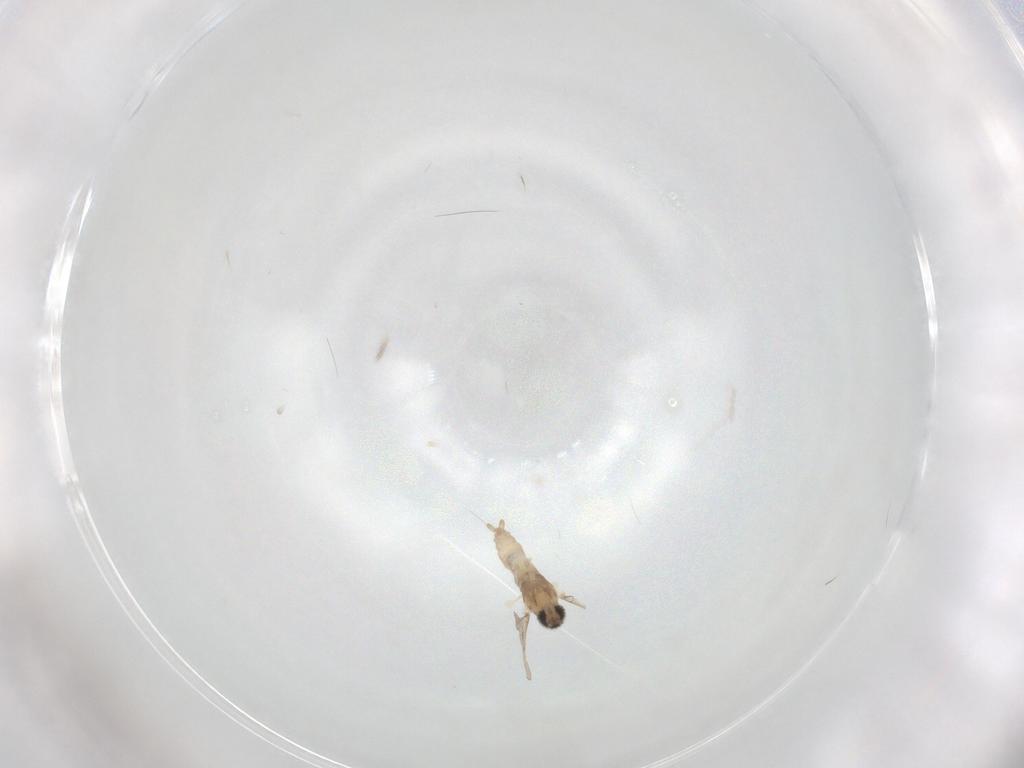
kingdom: Animalia
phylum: Arthropoda
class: Insecta
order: Diptera
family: Cecidomyiidae
